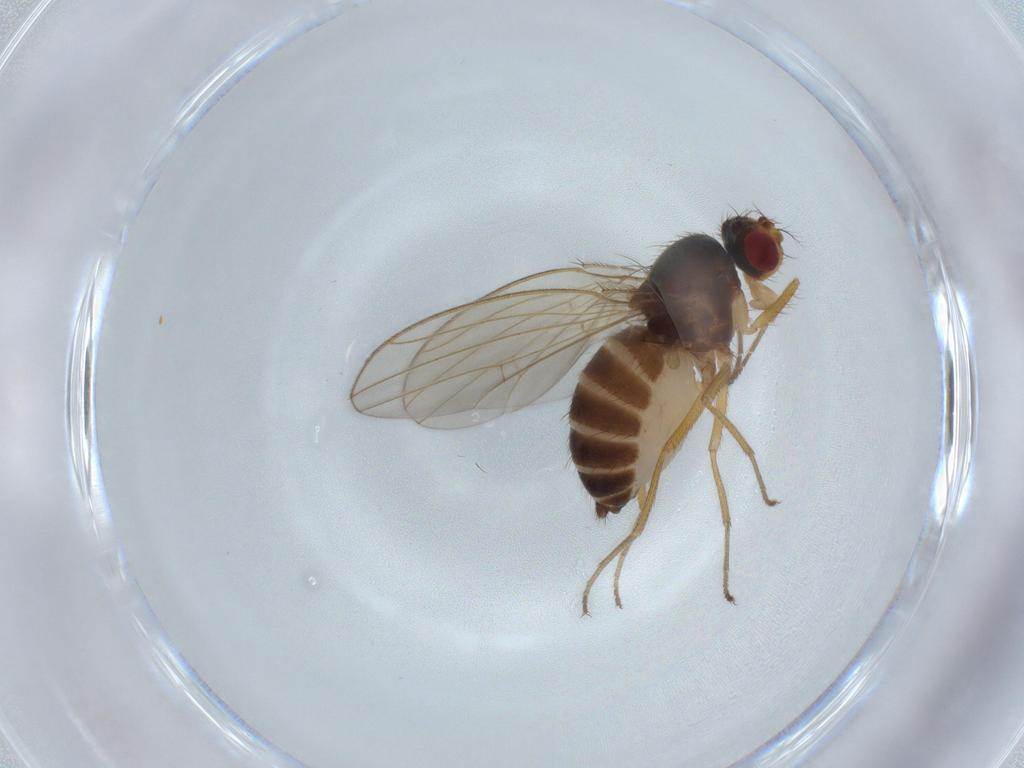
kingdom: Animalia
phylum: Arthropoda
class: Insecta
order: Diptera
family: Drosophilidae
